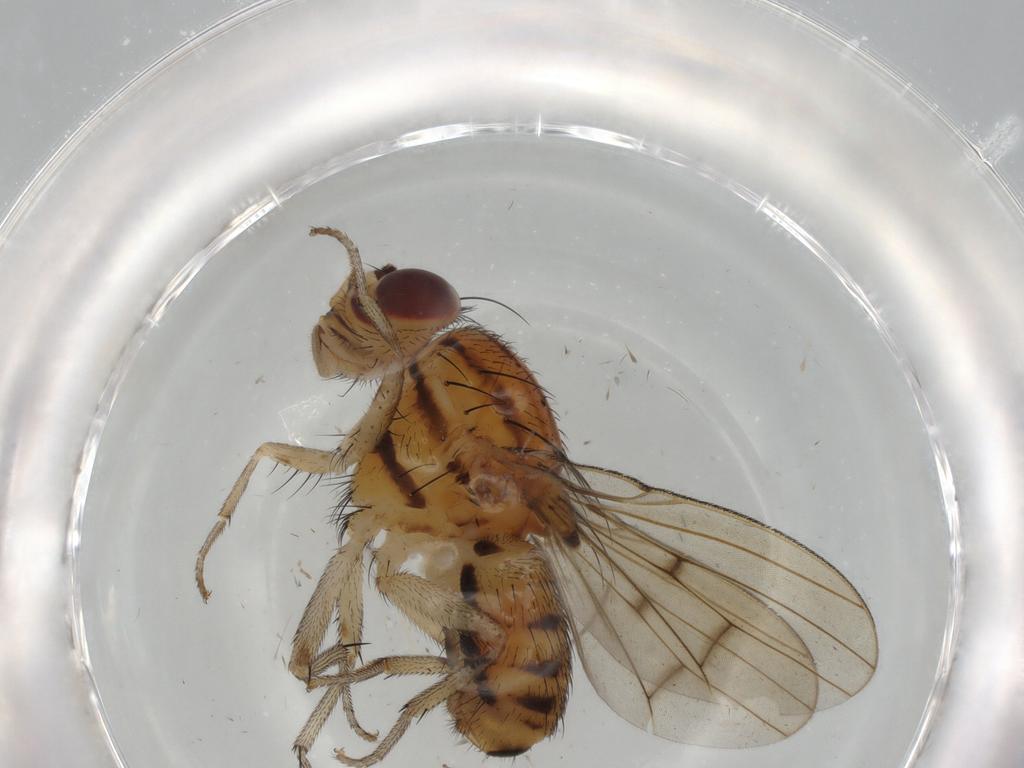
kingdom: Animalia
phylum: Arthropoda
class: Insecta
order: Diptera
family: Lauxaniidae
